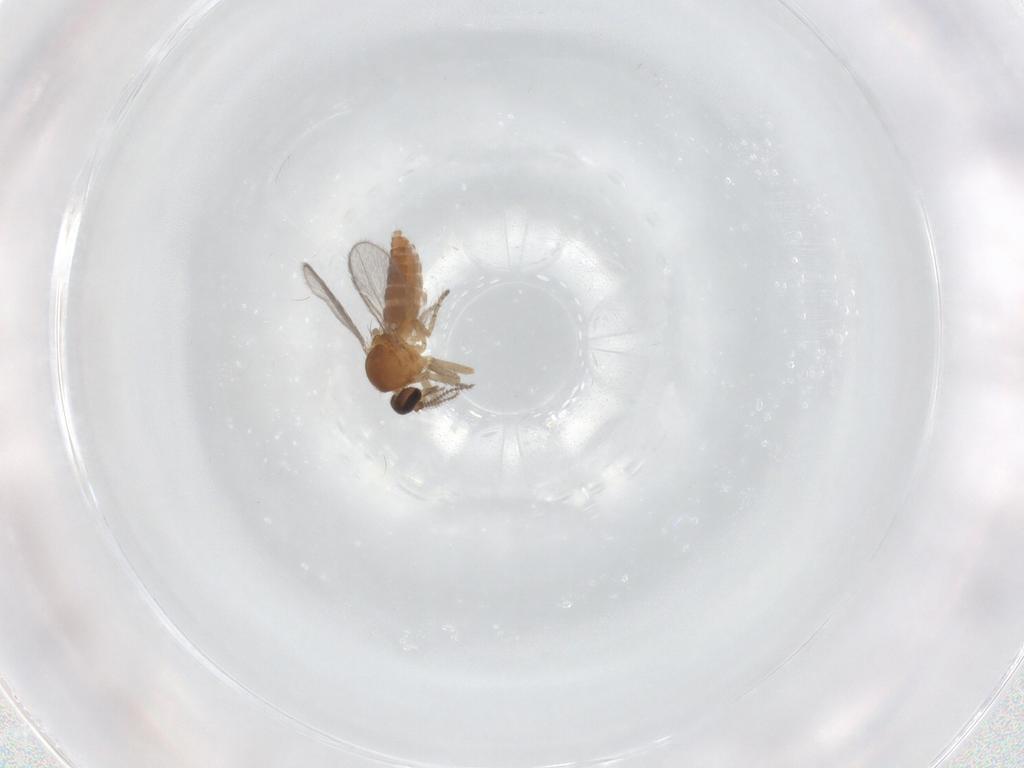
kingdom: Animalia
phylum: Arthropoda
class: Insecta
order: Diptera
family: Ceratopogonidae
